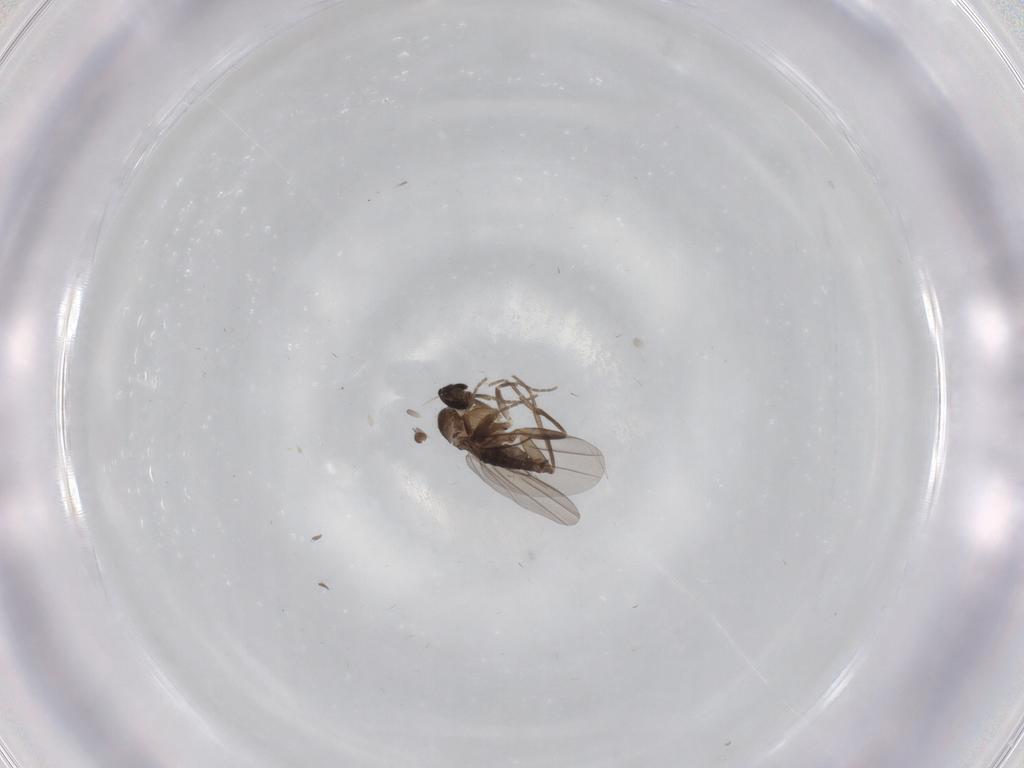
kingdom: Animalia
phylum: Arthropoda
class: Insecta
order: Diptera
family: Phoridae
